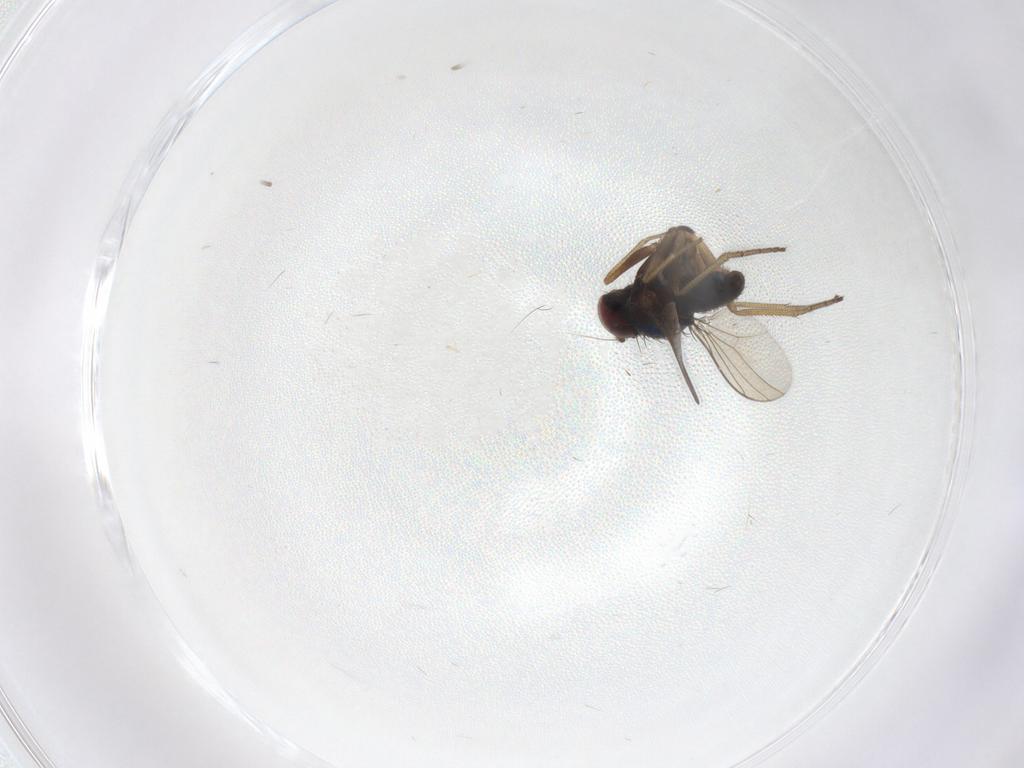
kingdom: Animalia
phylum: Arthropoda
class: Insecta
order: Diptera
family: Dolichopodidae
